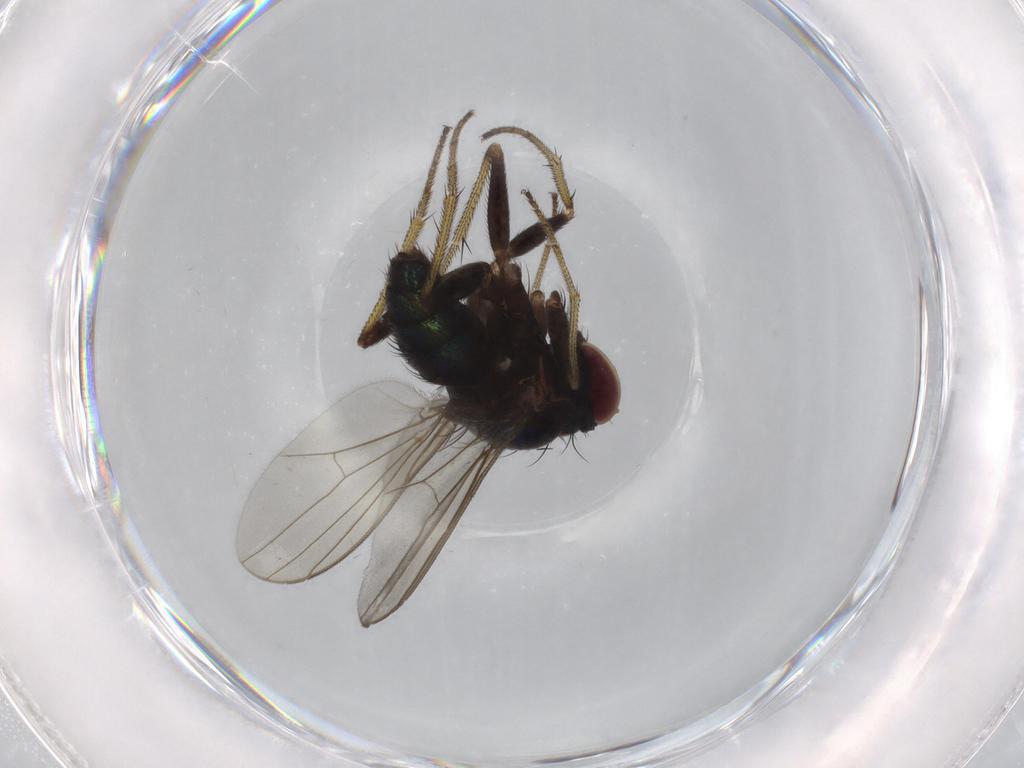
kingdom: Animalia
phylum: Arthropoda
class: Insecta
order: Diptera
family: Dolichopodidae
